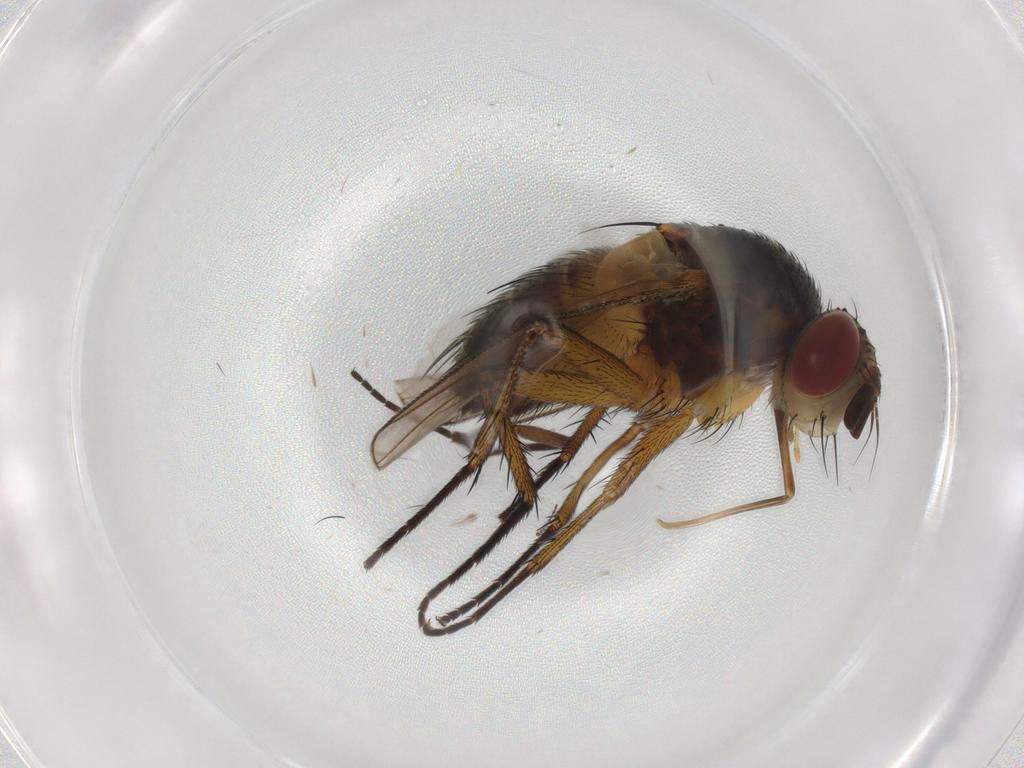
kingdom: Animalia
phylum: Arthropoda
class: Insecta
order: Diptera
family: Tachinidae
